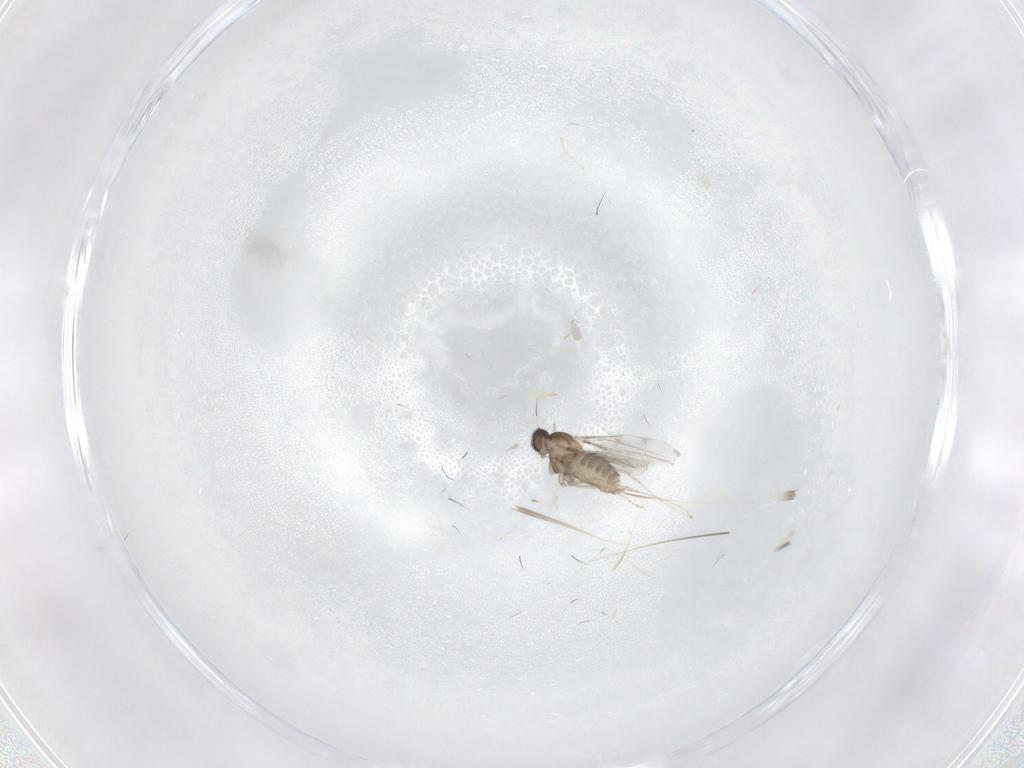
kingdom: Animalia
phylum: Arthropoda
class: Insecta
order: Diptera
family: Cecidomyiidae
